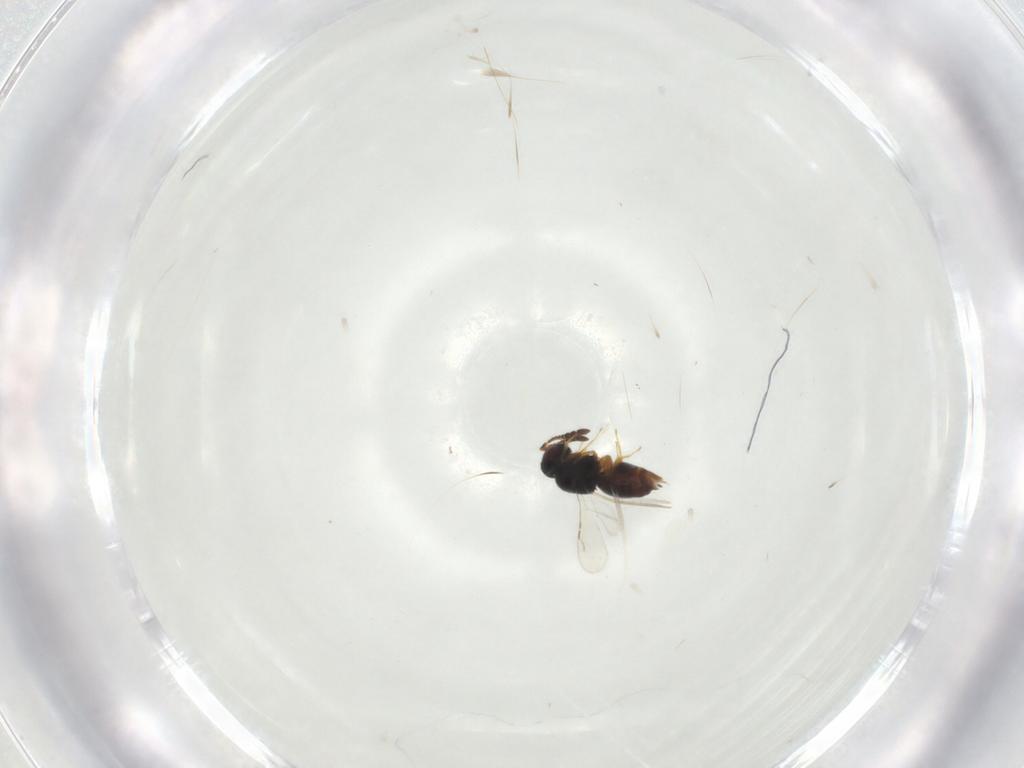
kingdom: Animalia
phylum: Arthropoda
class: Insecta
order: Hymenoptera
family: Ceraphronidae
